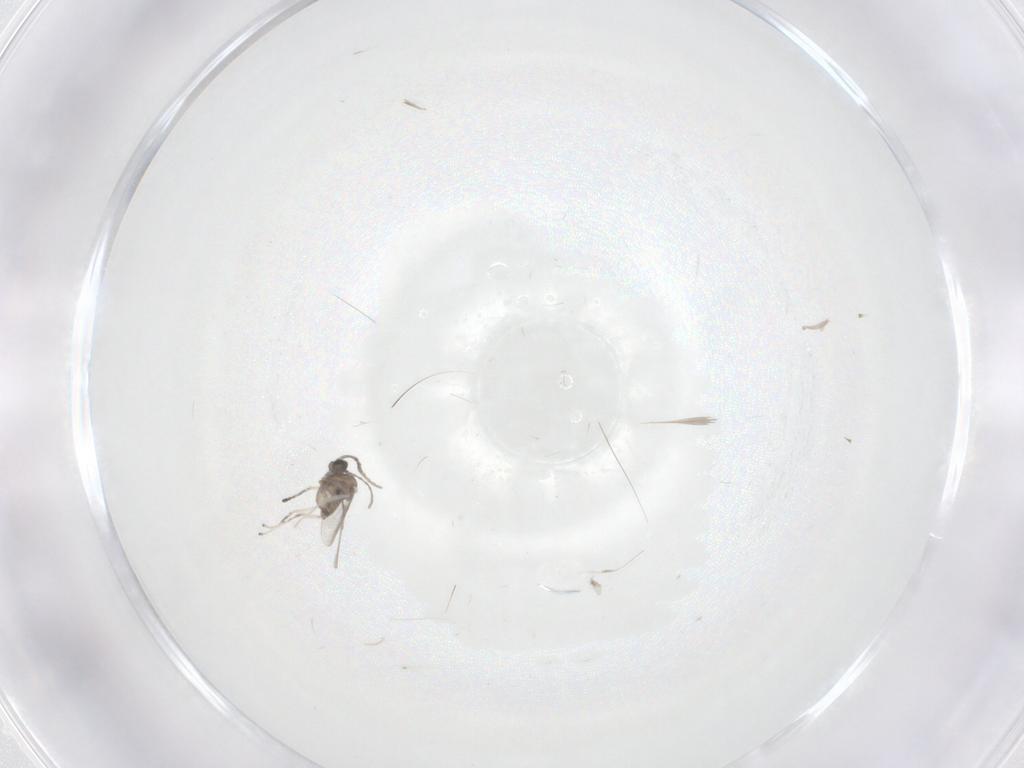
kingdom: Animalia
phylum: Arthropoda
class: Insecta
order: Diptera
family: Cecidomyiidae
